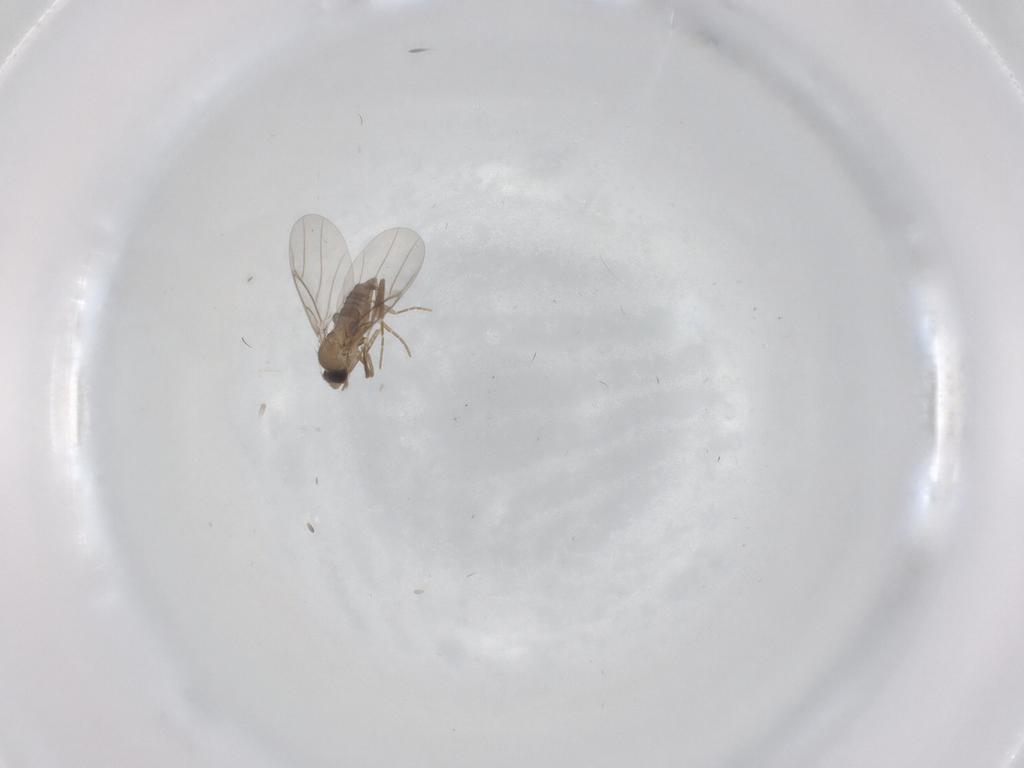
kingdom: Animalia
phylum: Arthropoda
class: Insecta
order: Diptera
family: Cecidomyiidae
